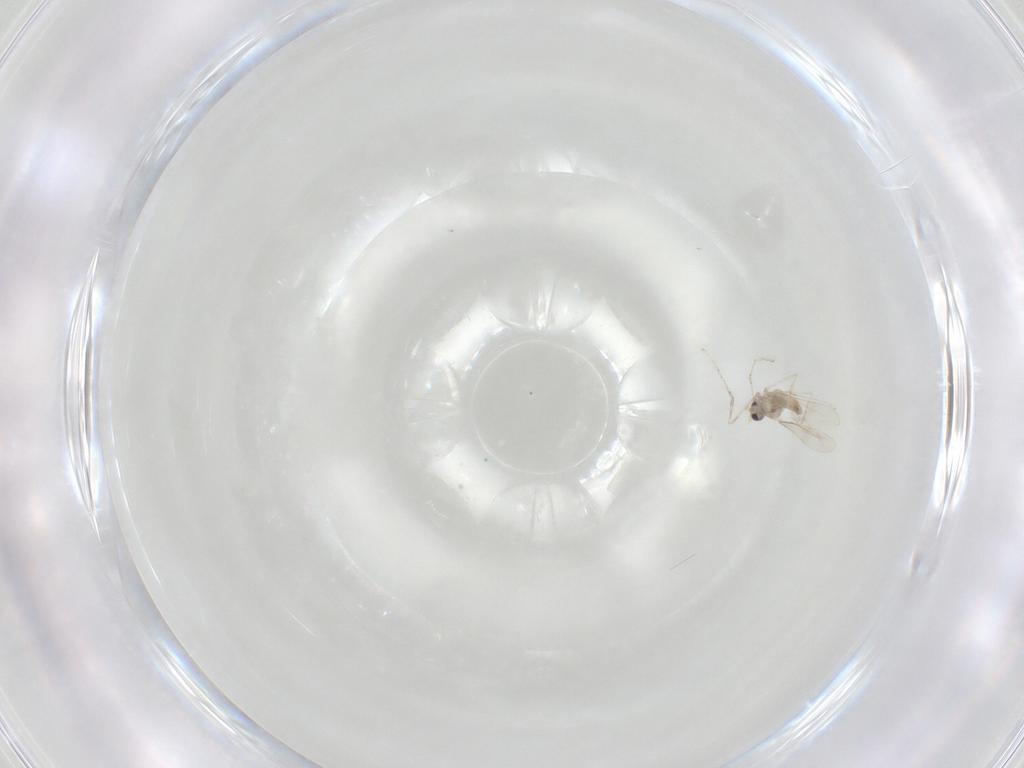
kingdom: Animalia
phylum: Arthropoda
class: Insecta
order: Diptera
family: Cecidomyiidae
